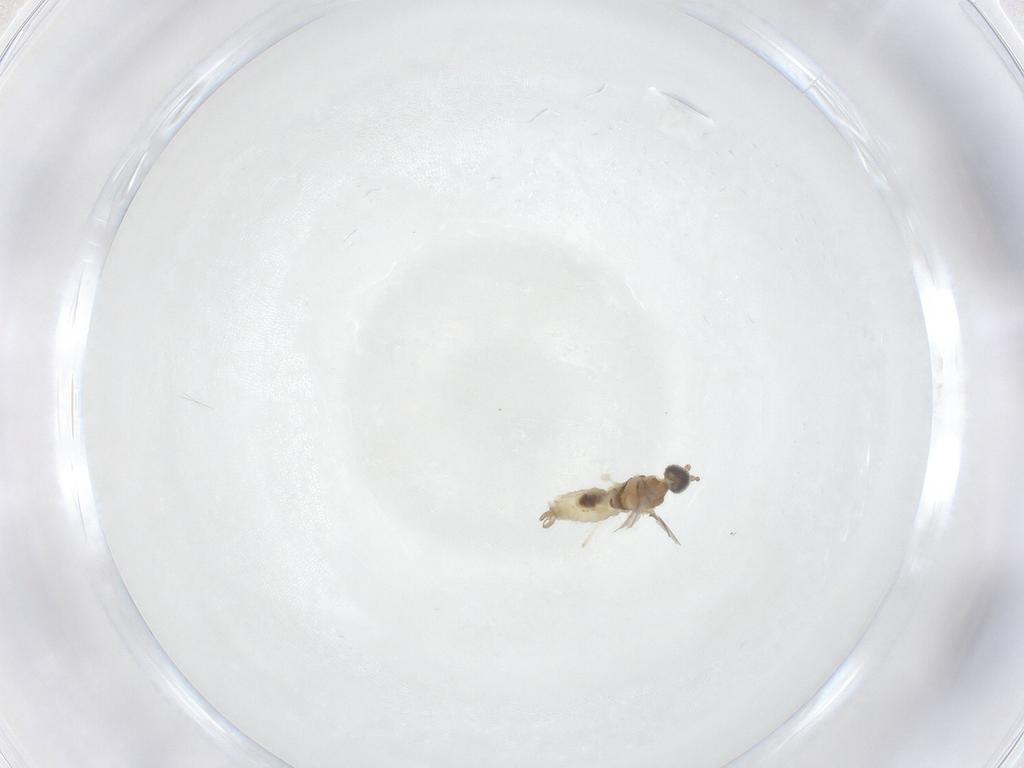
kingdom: Animalia
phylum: Arthropoda
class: Insecta
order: Diptera
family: Cecidomyiidae
